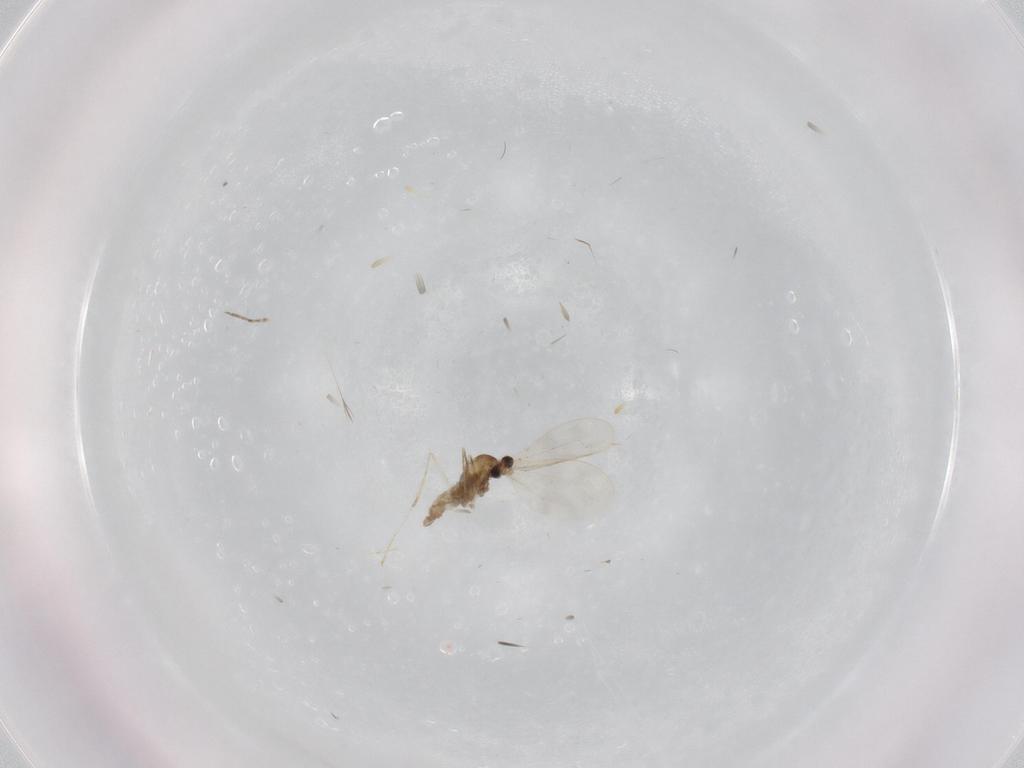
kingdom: Animalia
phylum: Arthropoda
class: Insecta
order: Diptera
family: Cecidomyiidae
